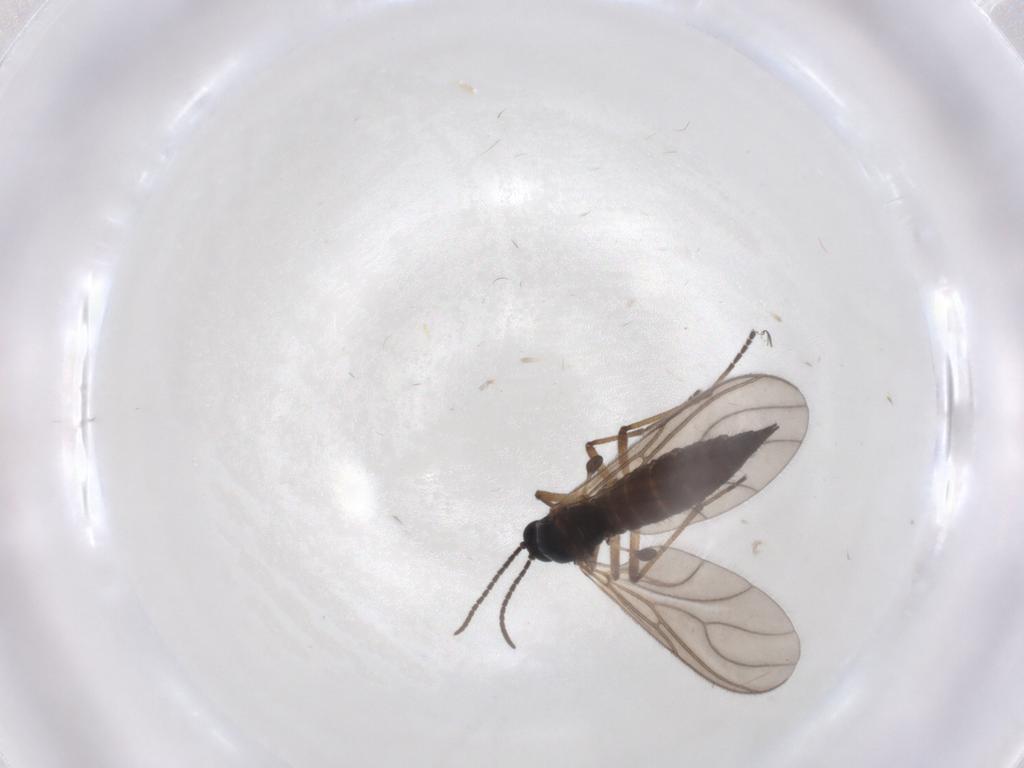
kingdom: Animalia
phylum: Arthropoda
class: Insecta
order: Diptera
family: Sciaridae
